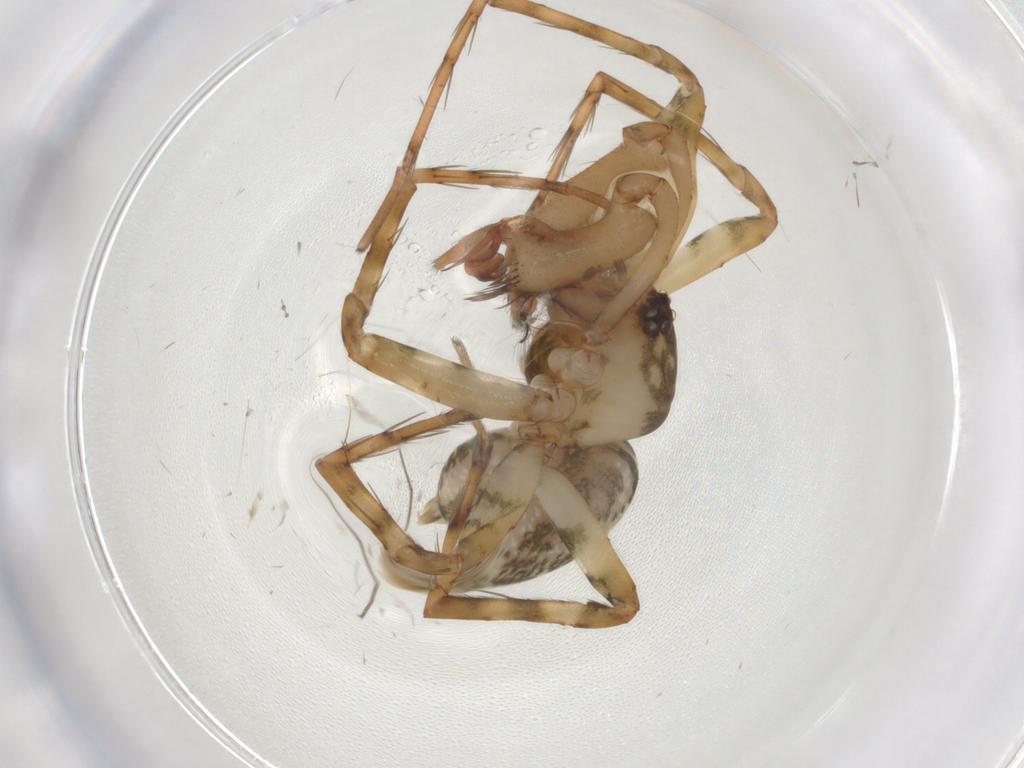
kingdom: Animalia
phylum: Arthropoda
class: Arachnida
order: Araneae
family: Theridiidae
